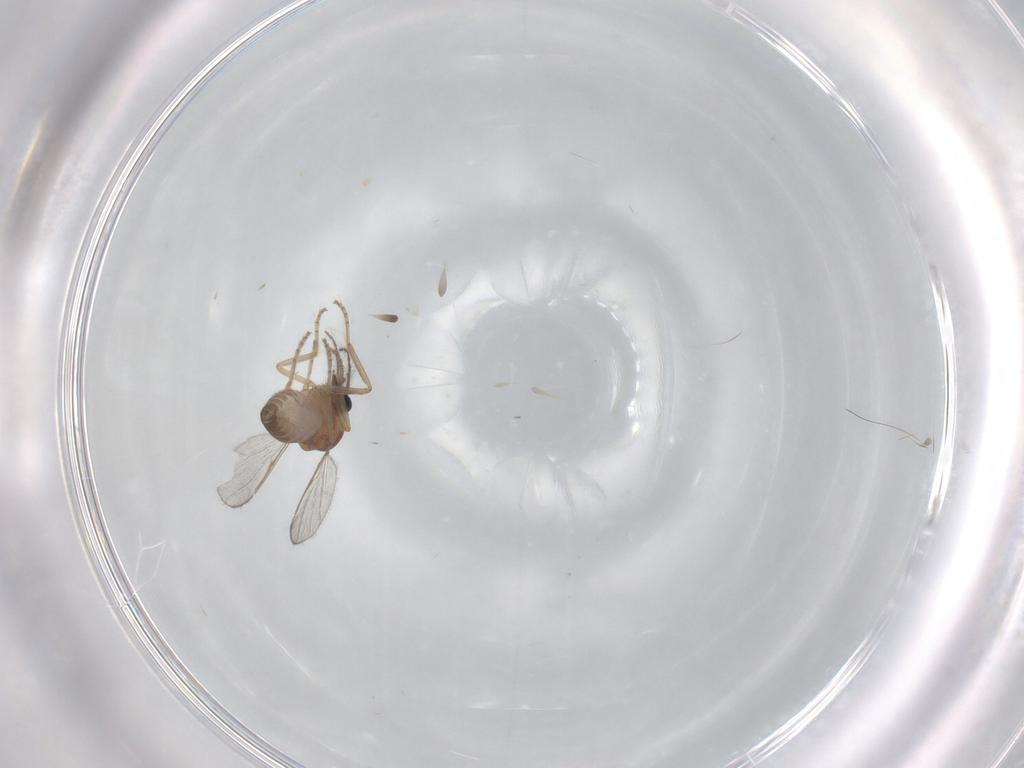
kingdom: Animalia
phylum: Arthropoda
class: Insecta
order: Diptera
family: Ceratopogonidae
